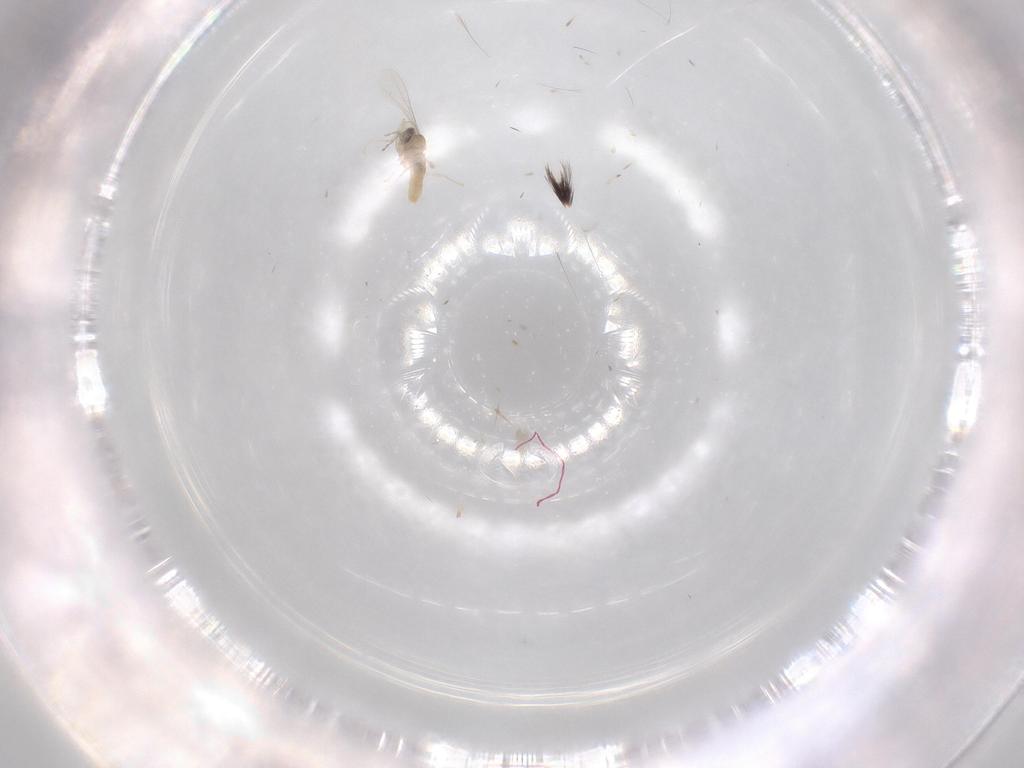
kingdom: Animalia
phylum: Arthropoda
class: Insecta
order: Diptera
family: Cecidomyiidae
